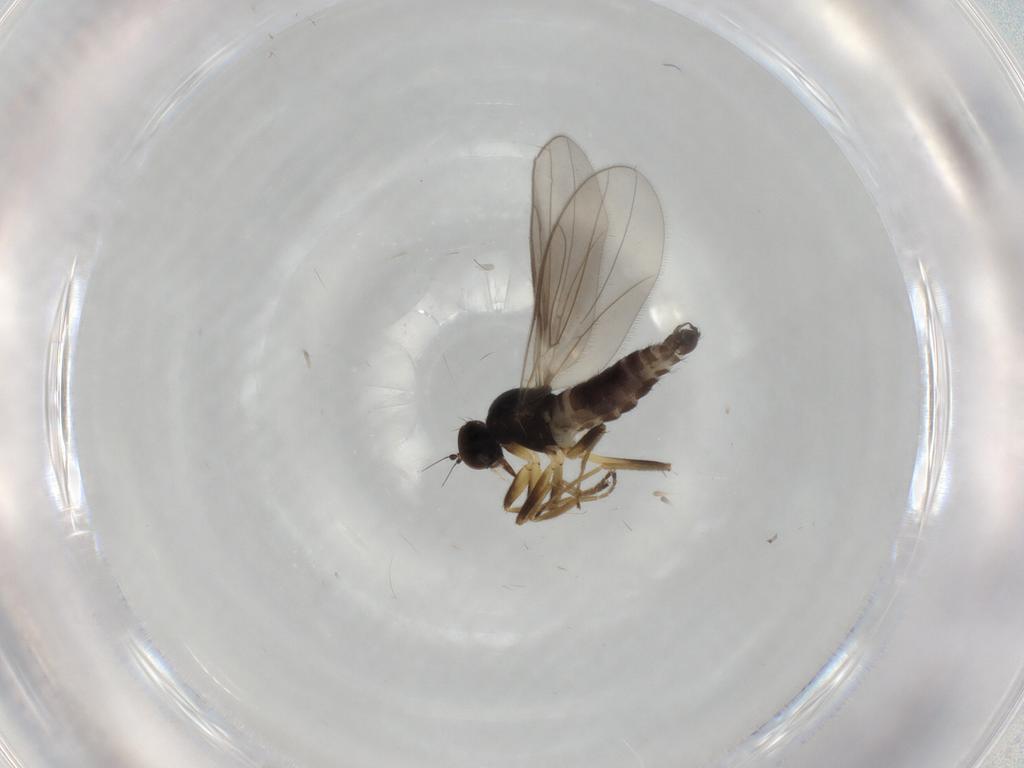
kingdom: Animalia
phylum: Arthropoda
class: Insecta
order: Diptera
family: Hybotidae
